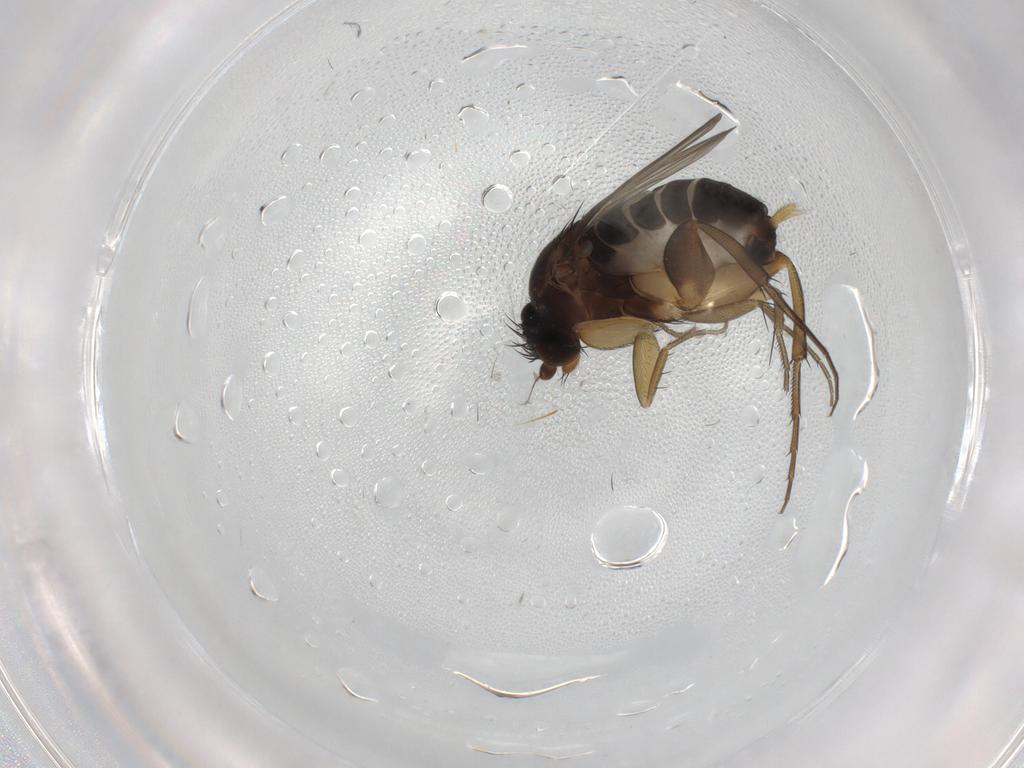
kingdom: Animalia
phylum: Arthropoda
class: Insecta
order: Diptera
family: Phoridae
